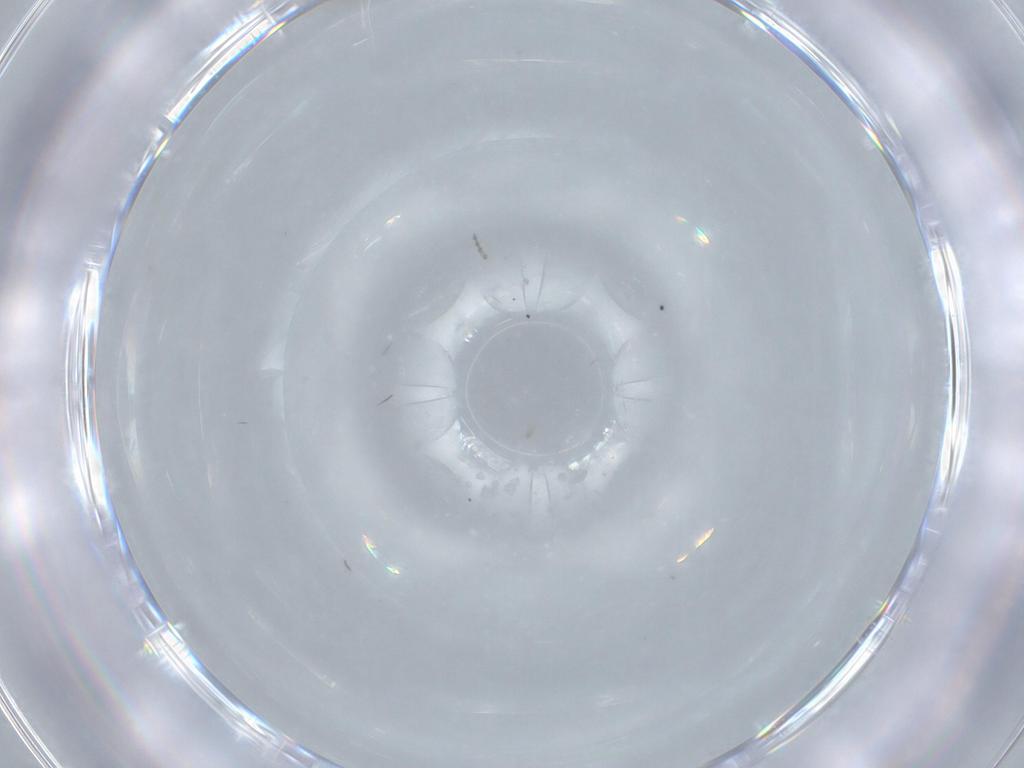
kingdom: Animalia
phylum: Arthropoda
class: Insecta
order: Diptera
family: Cecidomyiidae
